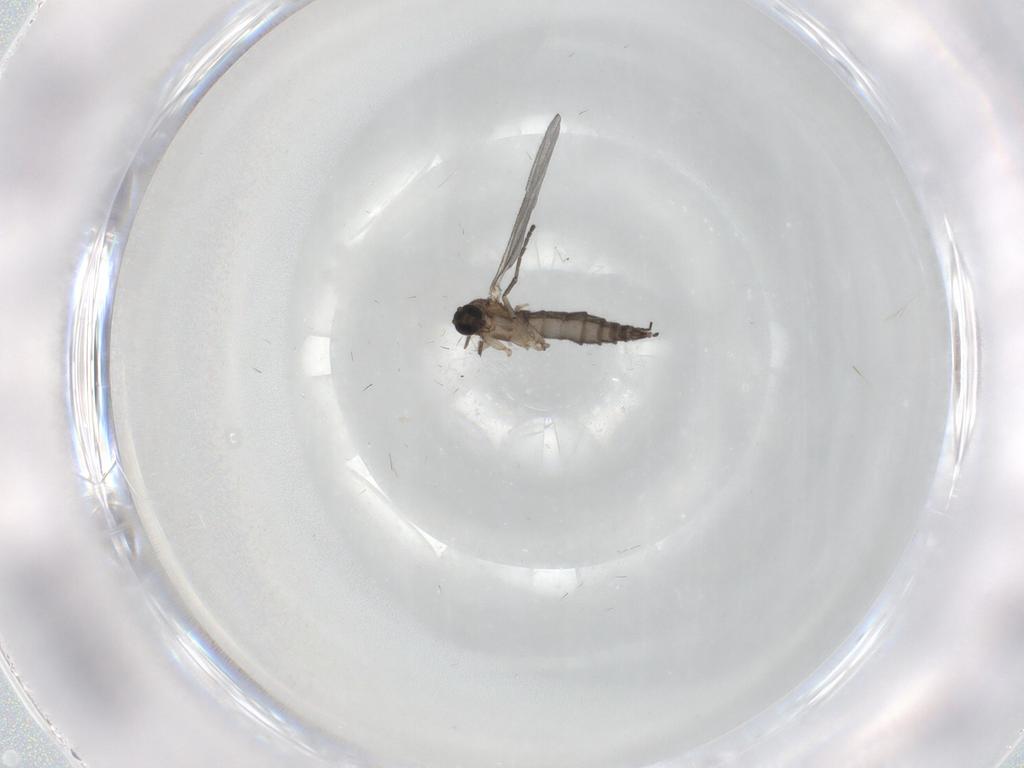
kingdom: Animalia
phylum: Arthropoda
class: Insecta
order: Diptera
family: Sciaridae
